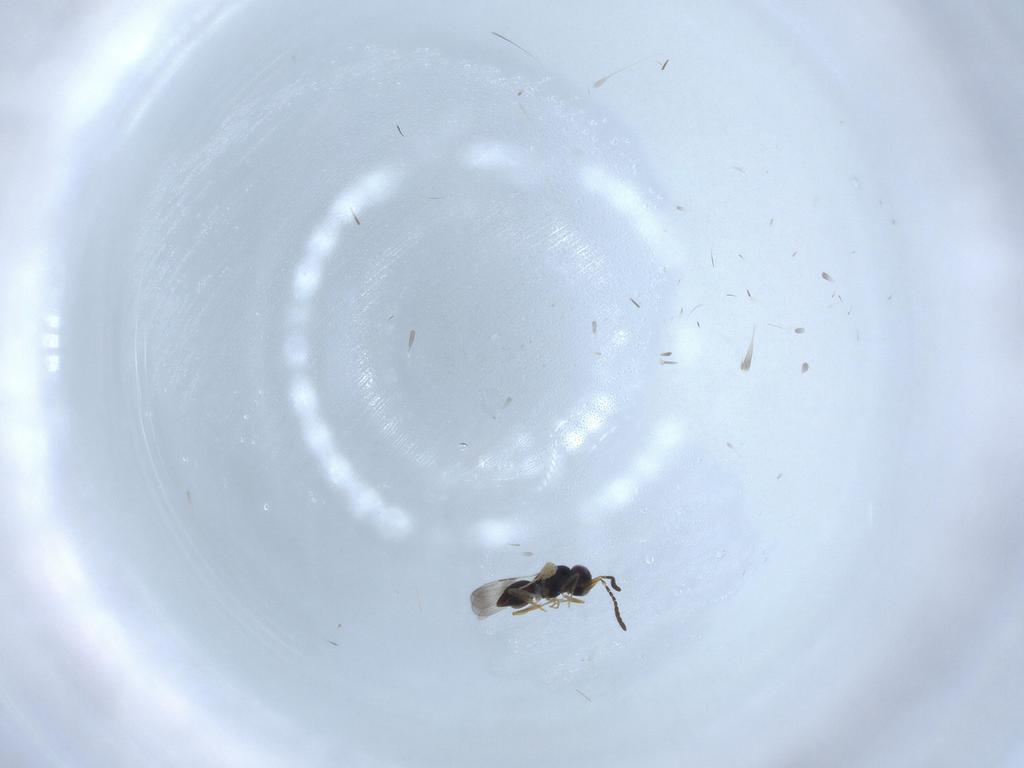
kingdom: Animalia
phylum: Arthropoda
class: Insecta
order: Hymenoptera
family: Ceraphronidae
